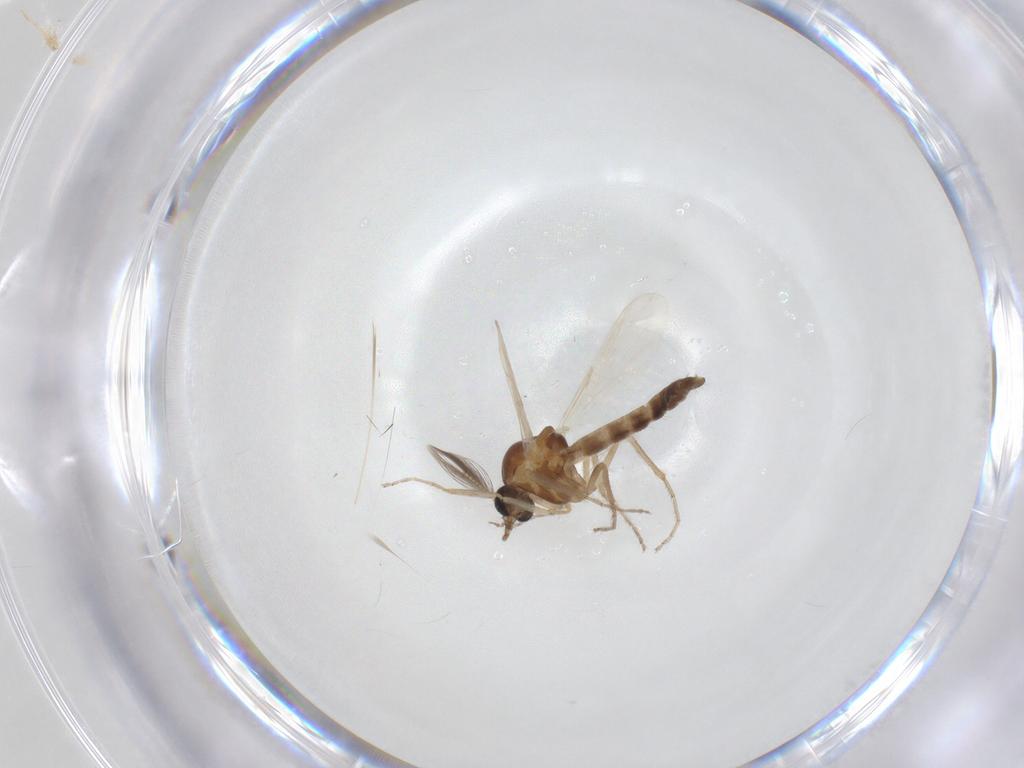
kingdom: Animalia
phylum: Arthropoda
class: Insecta
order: Diptera
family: Ceratopogonidae
